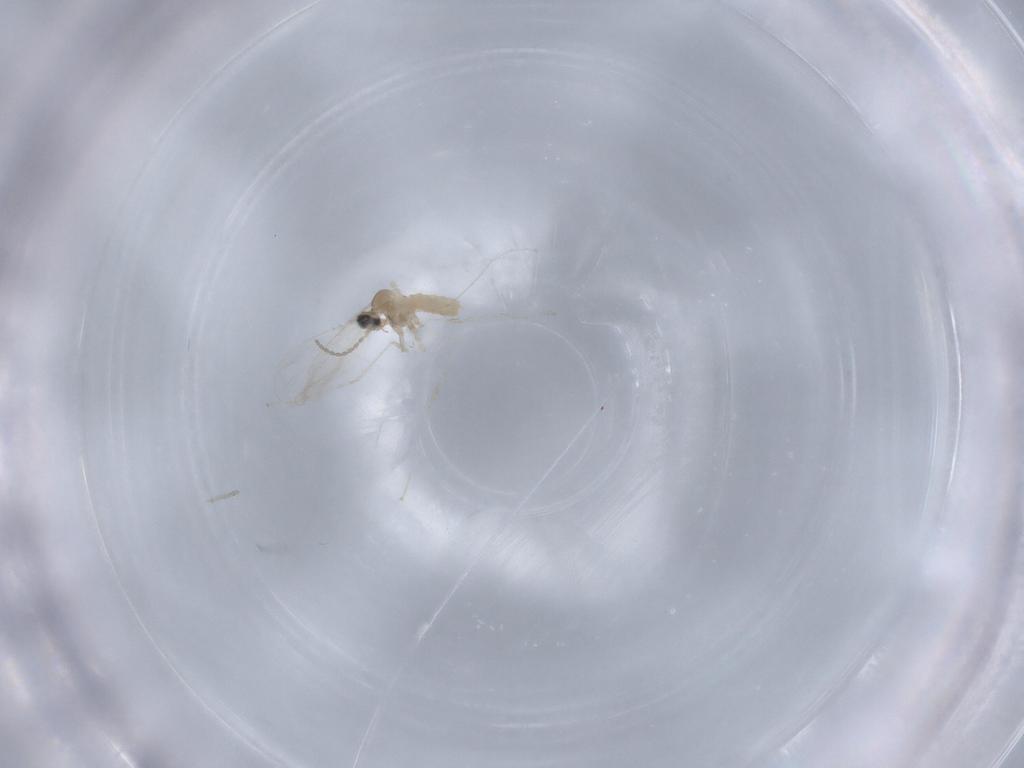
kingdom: Animalia
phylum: Arthropoda
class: Insecta
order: Diptera
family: Cecidomyiidae
